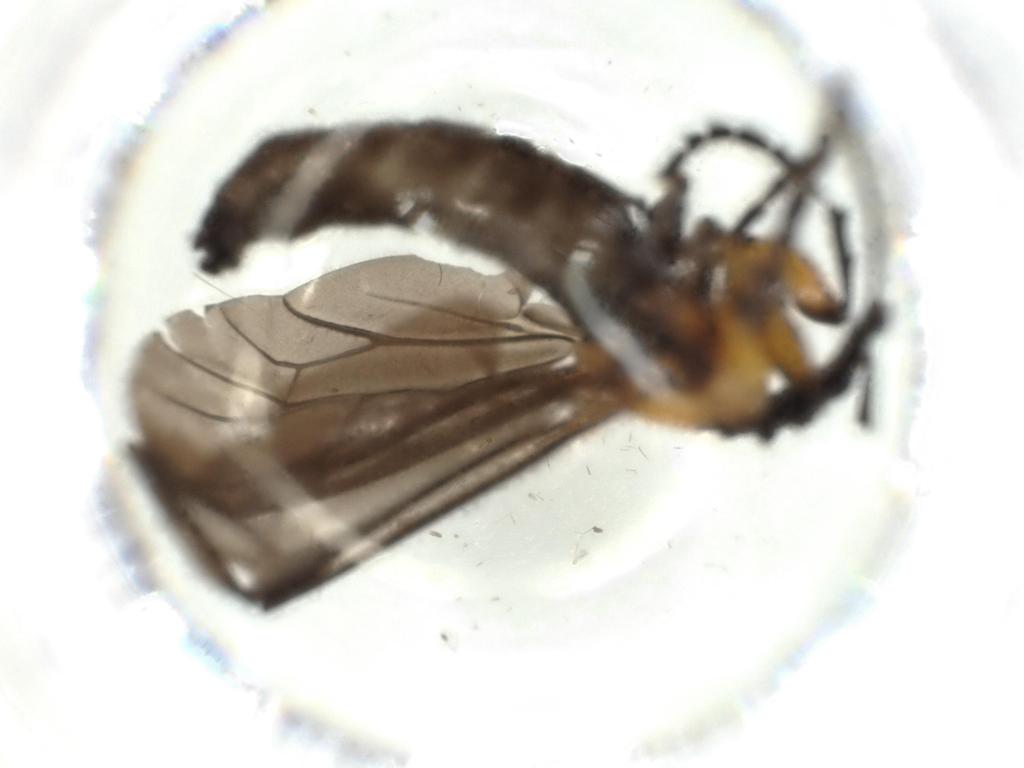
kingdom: Animalia
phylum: Arthropoda
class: Insecta
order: Diptera
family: Bibionidae
